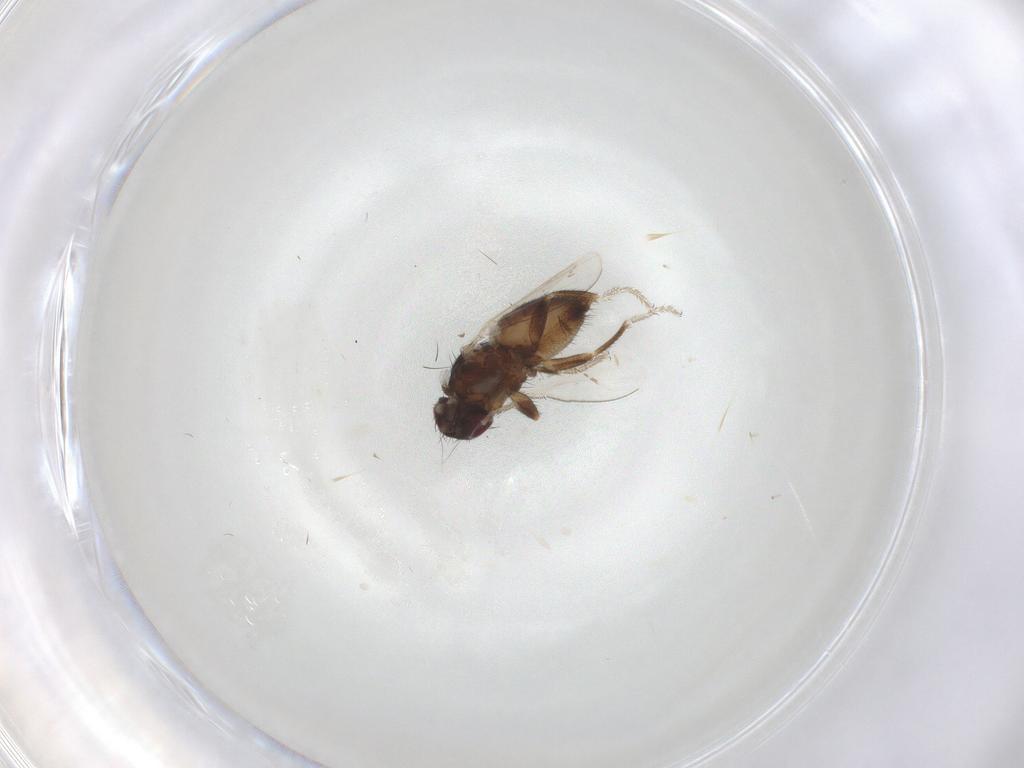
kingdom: Animalia
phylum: Arthropoda
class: Insecta
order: Diptera
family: Milichiidae
